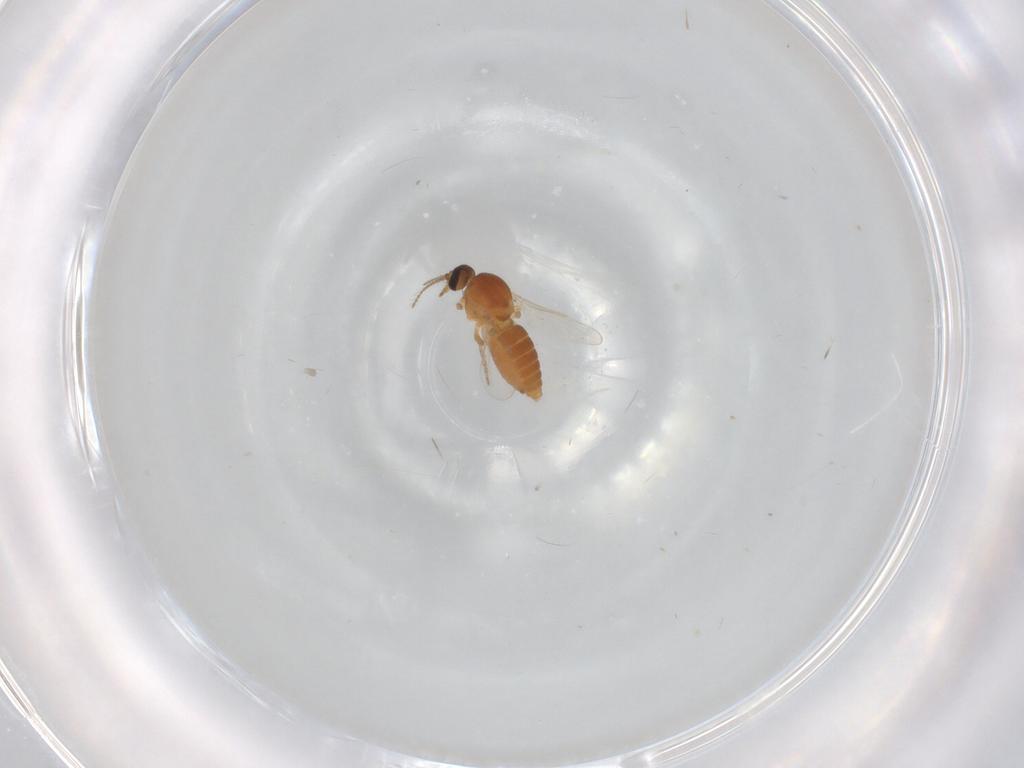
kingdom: Animalia
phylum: Arthropoda
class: Insecta
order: Diptera
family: Ceratopogonidae
